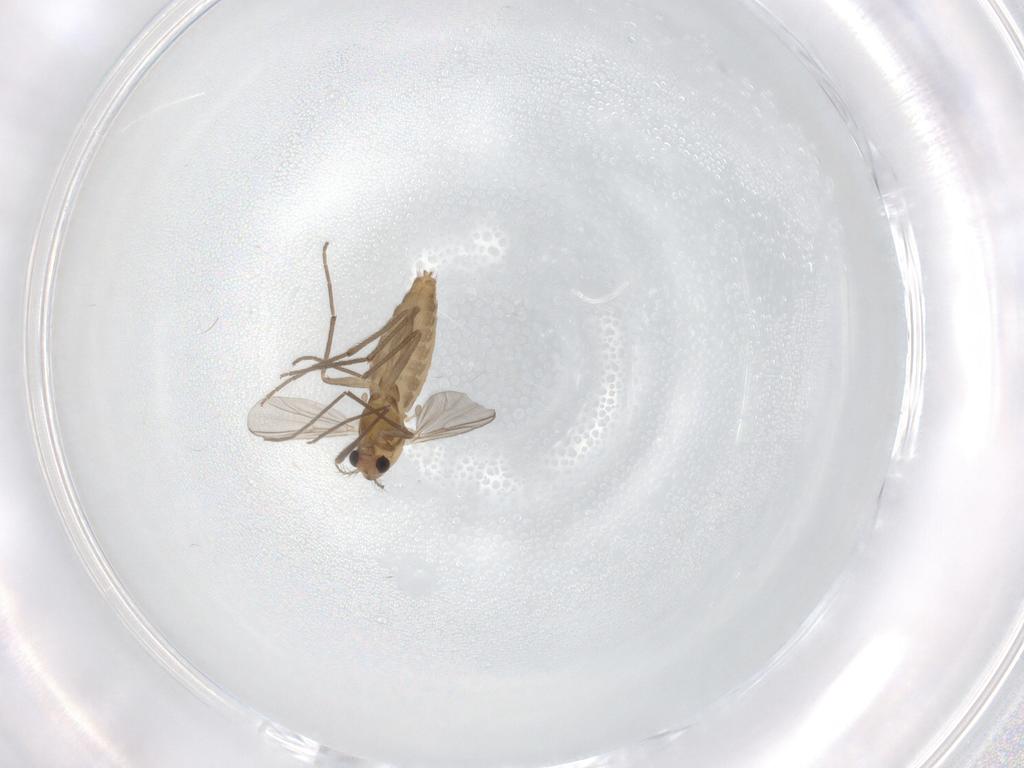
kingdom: Animalia
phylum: Arthropoda
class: Insecta
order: Diptera
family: Chironomidae
